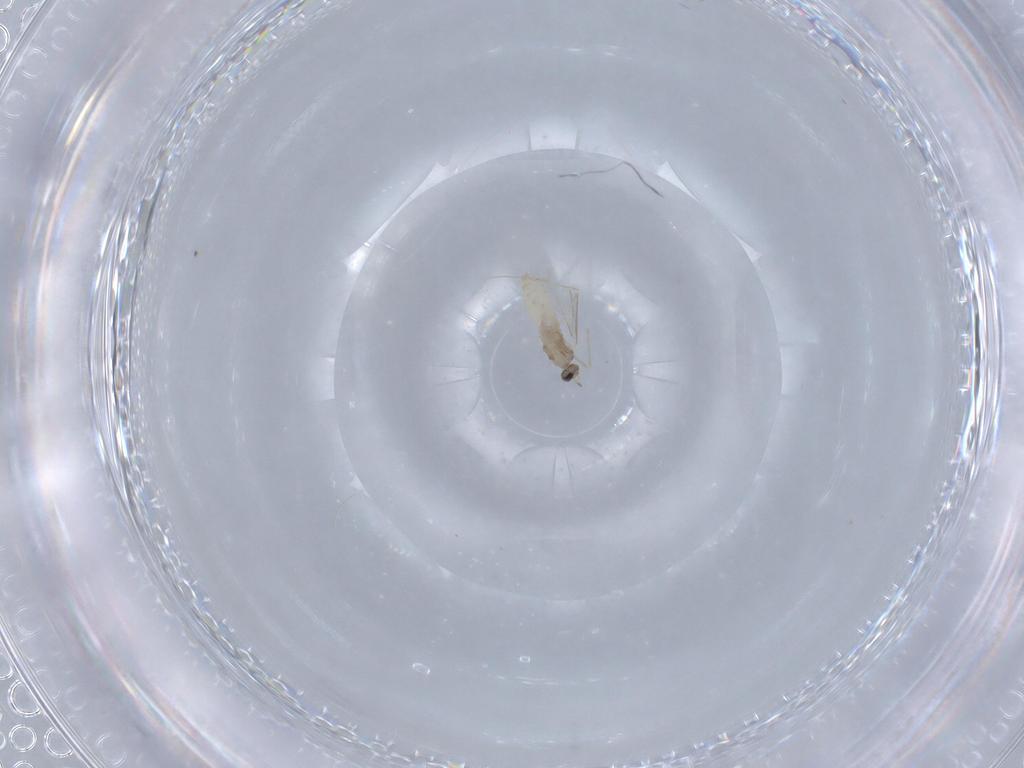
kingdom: Animalia
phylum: Arthropoda
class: Insecta
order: Diptera
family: Cecidomyiidae
